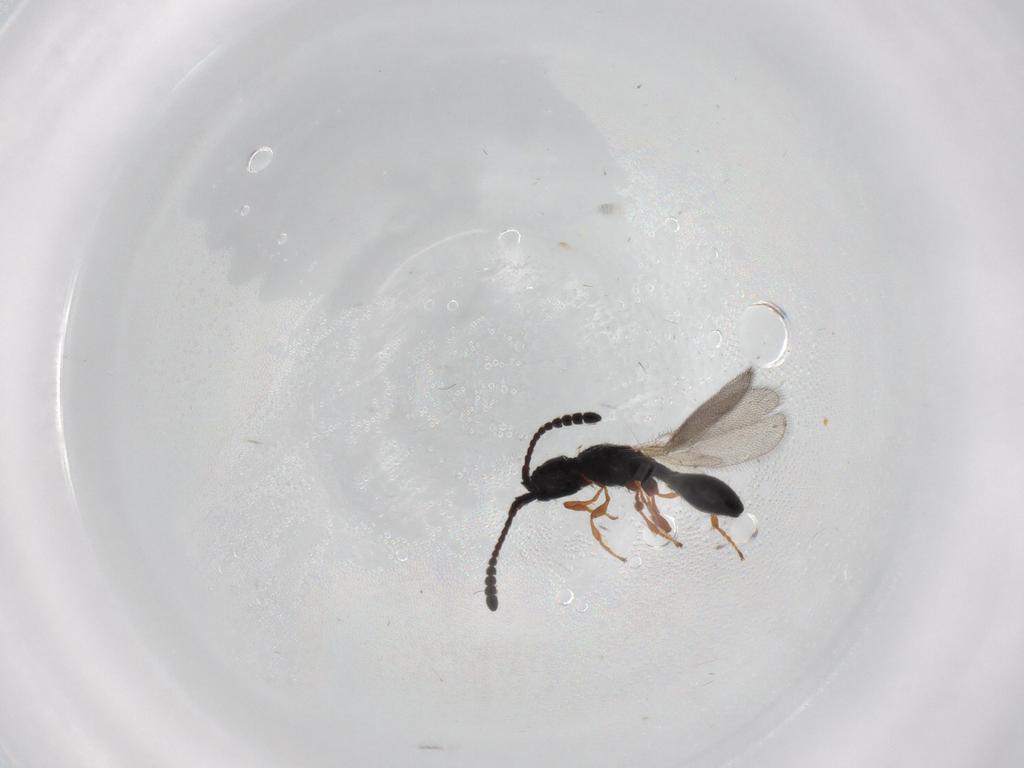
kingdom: Animalia
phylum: Arthropoda
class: Insecta
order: Hymenoptera
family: Diapriidae
